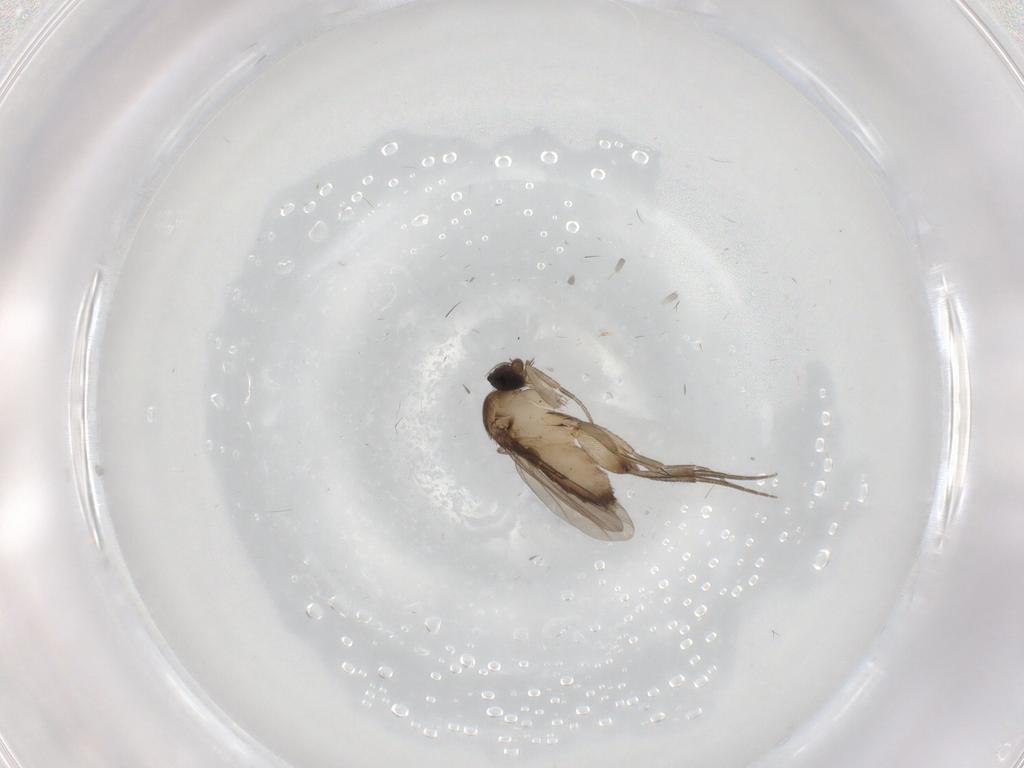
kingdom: Animalia
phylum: Arthropoda
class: Insecta
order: Diptera
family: Phoridae
